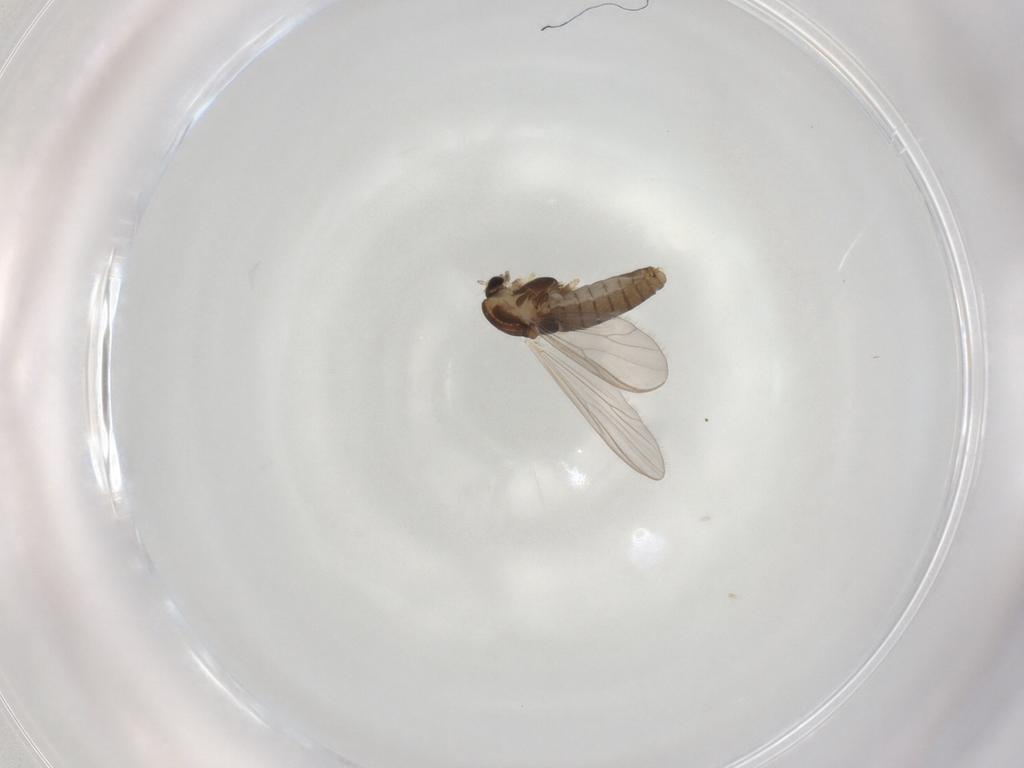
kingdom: Animalia
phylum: Arthropoda
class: Insecta
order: Diptera
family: Chironomidae
